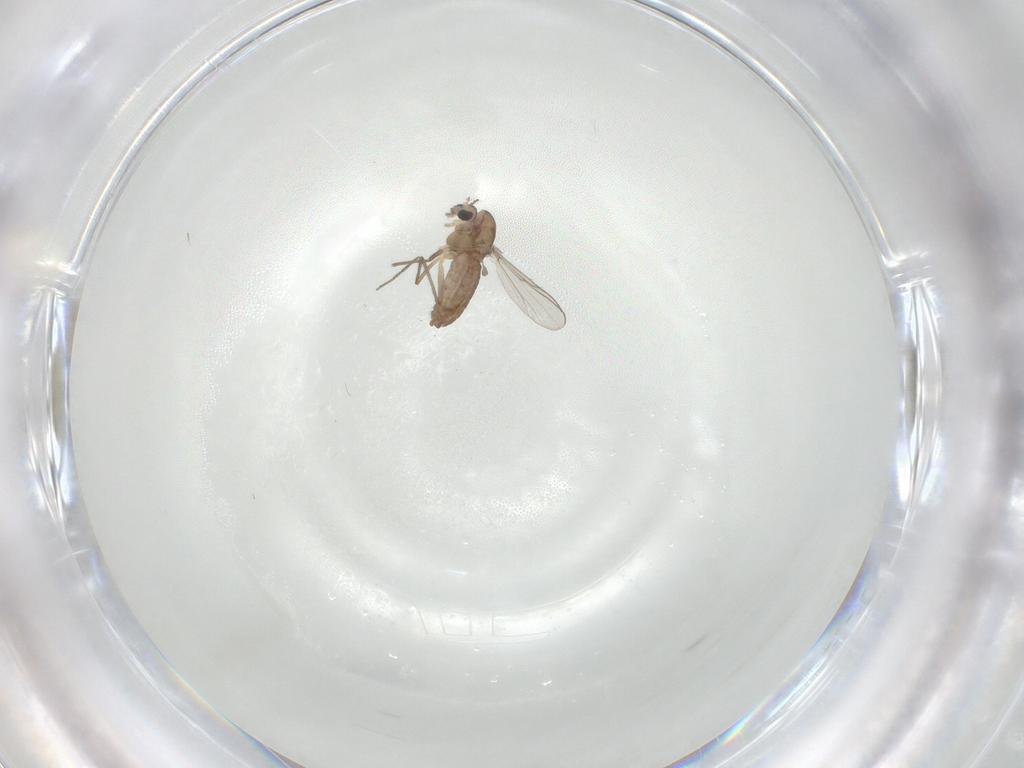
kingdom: Animalia
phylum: Arthropoda
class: Insecta
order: Diptera
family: Chironomidae
